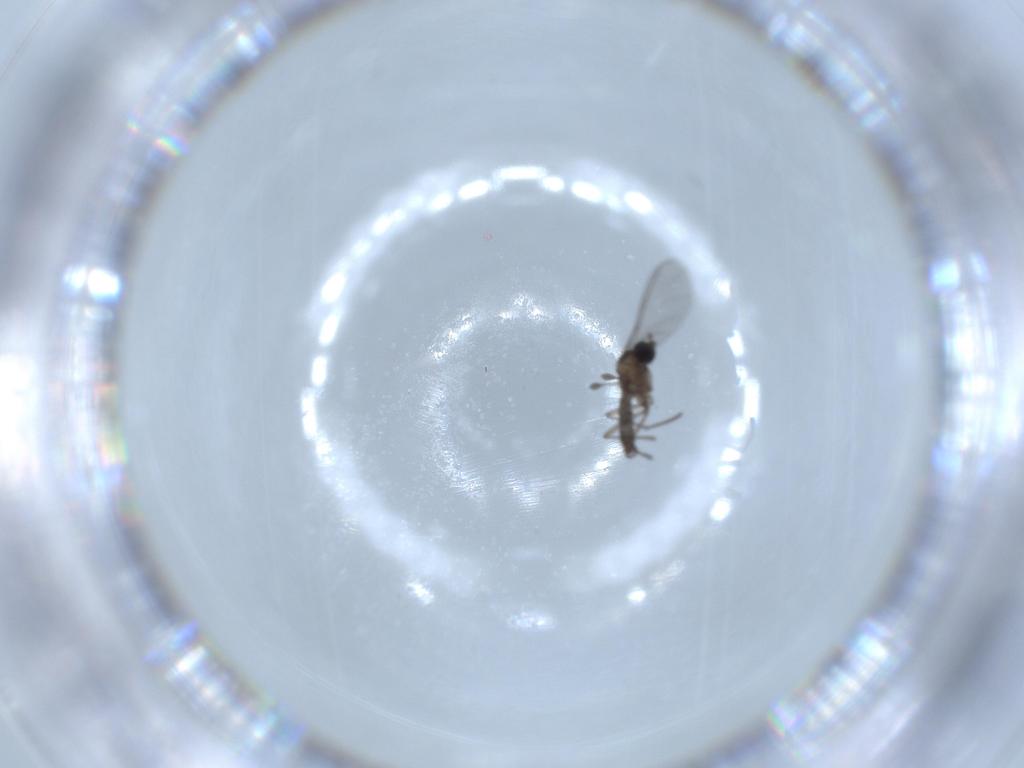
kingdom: Animalia
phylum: Arthropoda
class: Insecta
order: Diptera
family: Sciaridae
